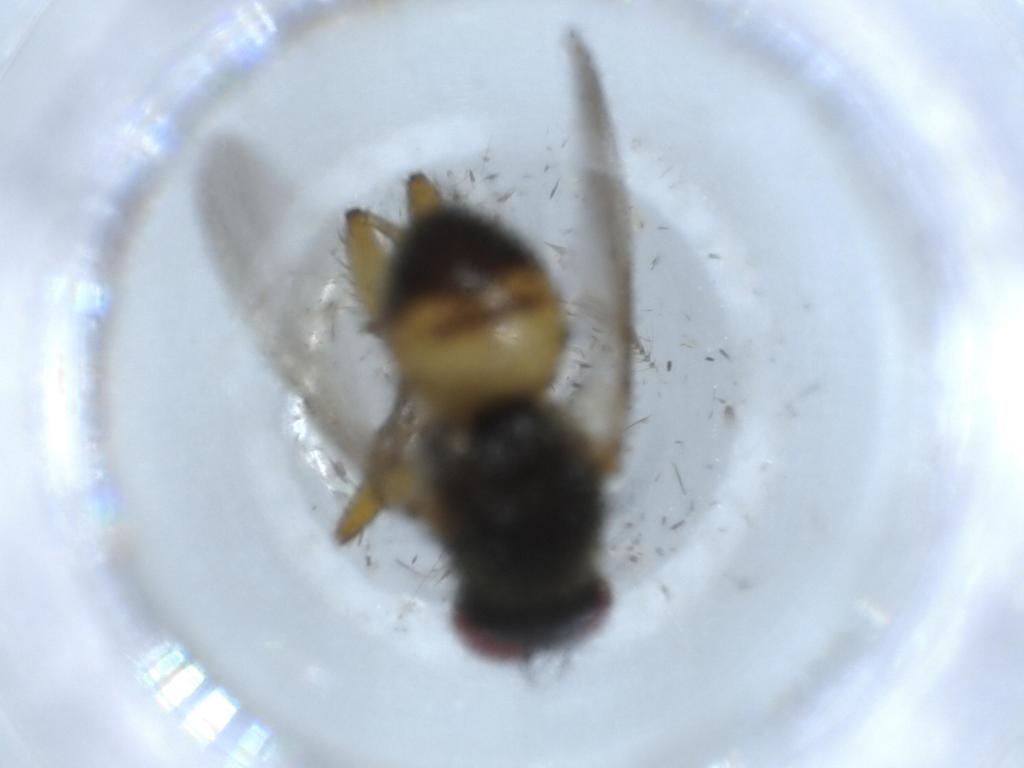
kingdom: Animalia
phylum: Arthropoda
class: Insecta
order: Diptera
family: Muscidae
